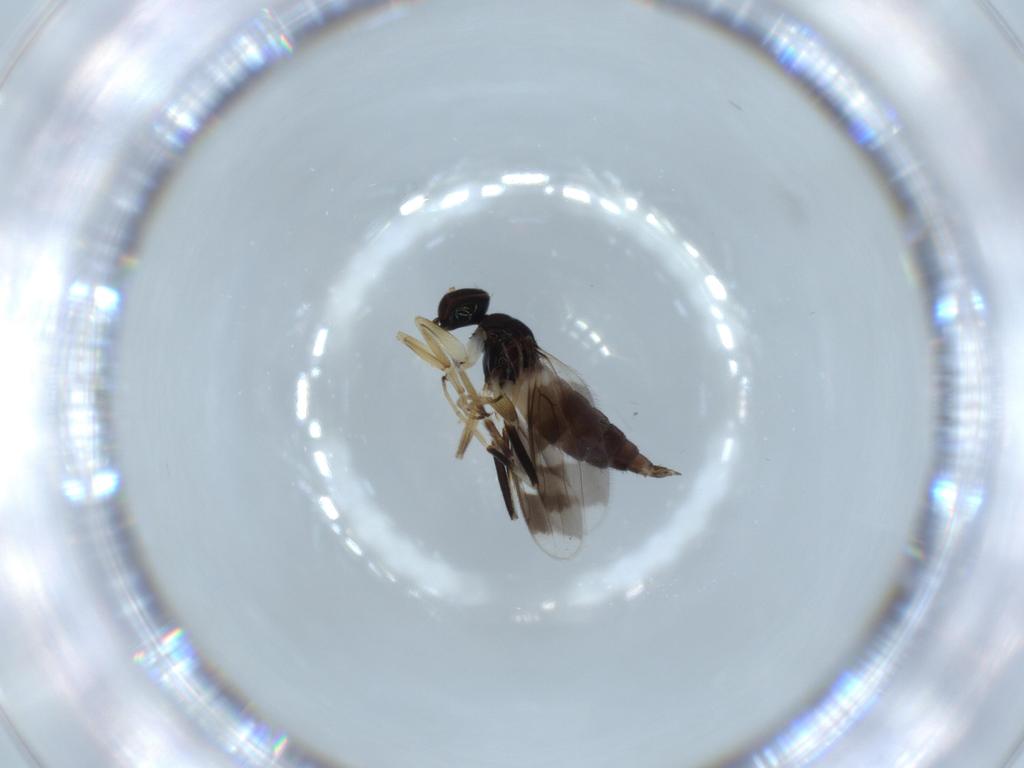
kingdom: Animalia
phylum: Arthropoda
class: Insecta
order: Diptera
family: Hybotidae
